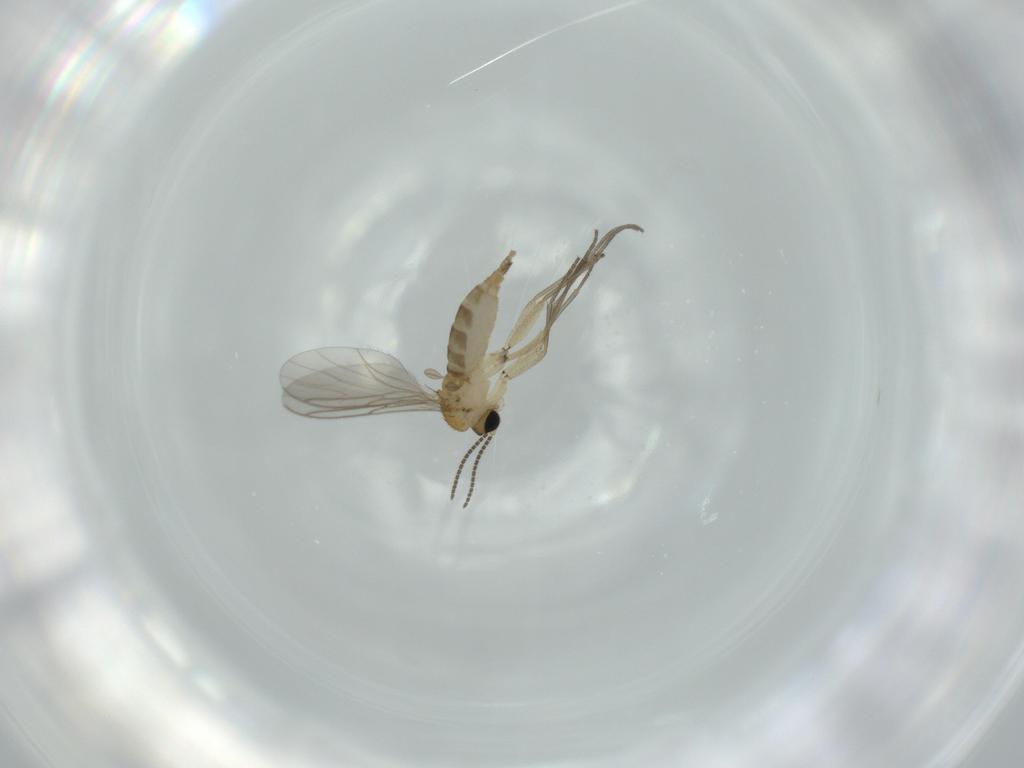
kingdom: Animalia
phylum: Arthropoda
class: Insecta
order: Diptera
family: Sciaridae
